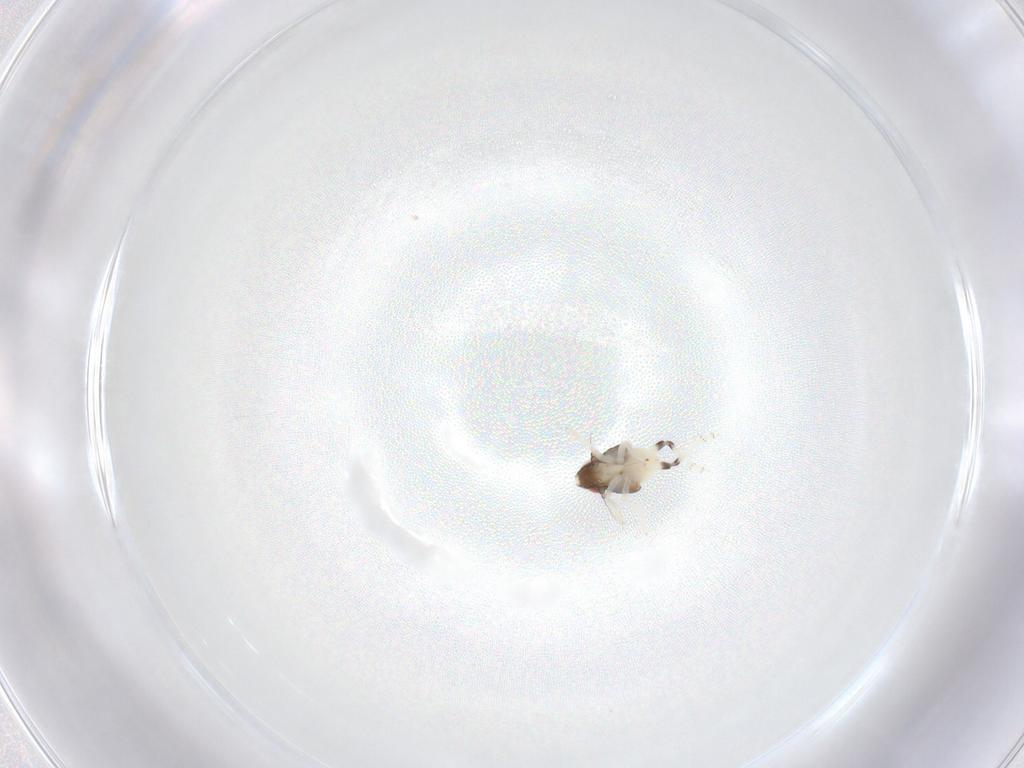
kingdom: Animalia
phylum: Arthropoda
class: Insecta
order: Hemiptera
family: Nogodinidae
